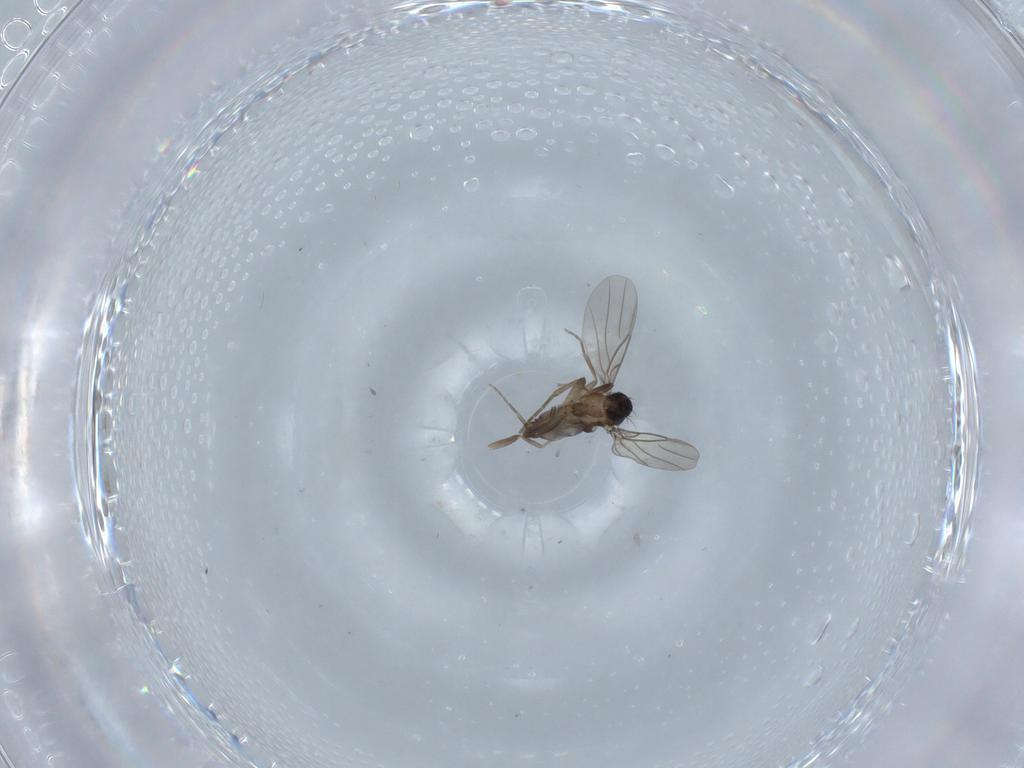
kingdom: Animalia
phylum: Arthropoda
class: Insecta
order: Diptera
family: Phoridae
